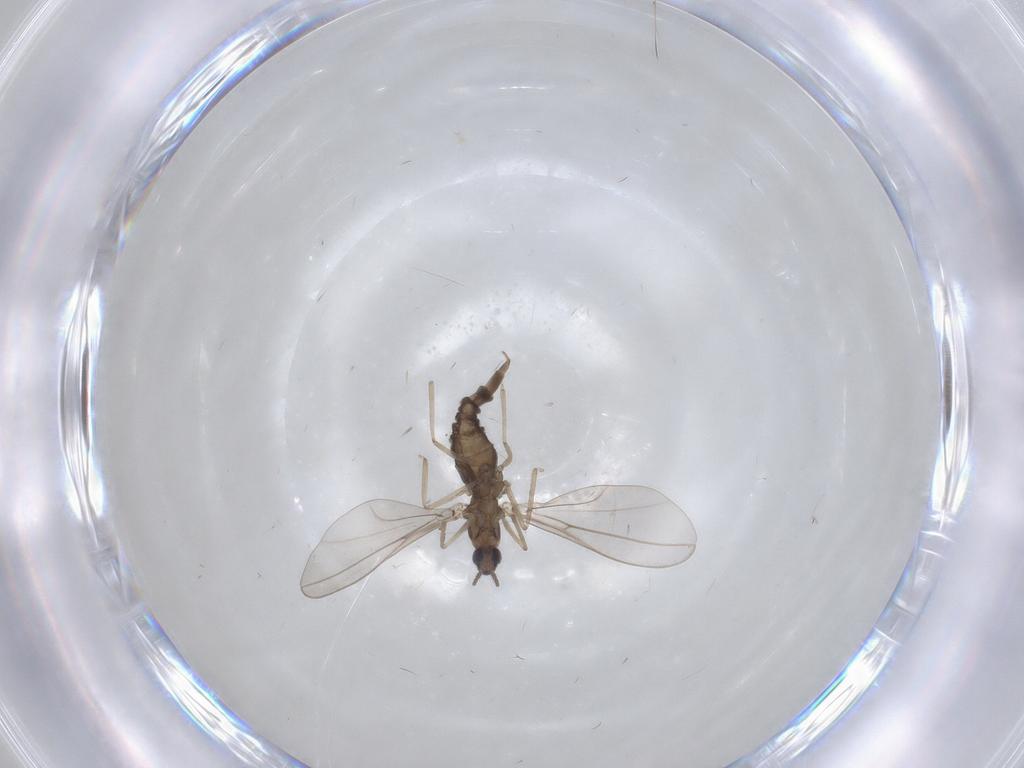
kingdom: Animalia
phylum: Arthropoda
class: Insecta
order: Diptera
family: Cecidomyiidae
